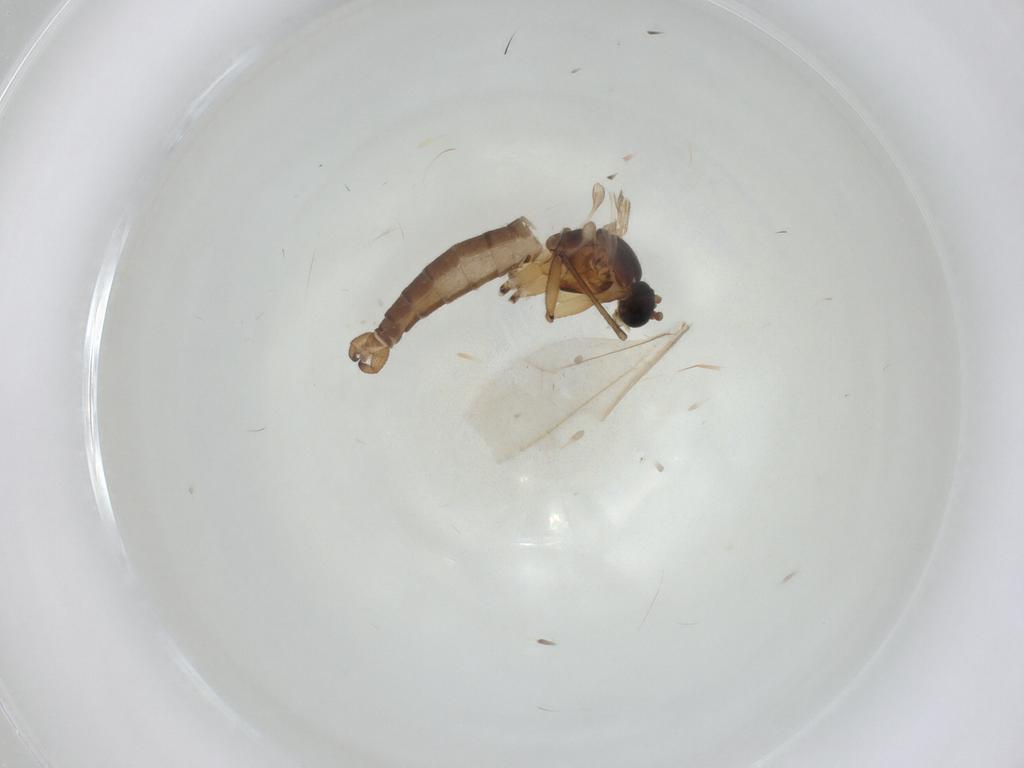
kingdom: Animalia
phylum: Arthropoda
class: Insecta
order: Diptera
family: Sciaridae
